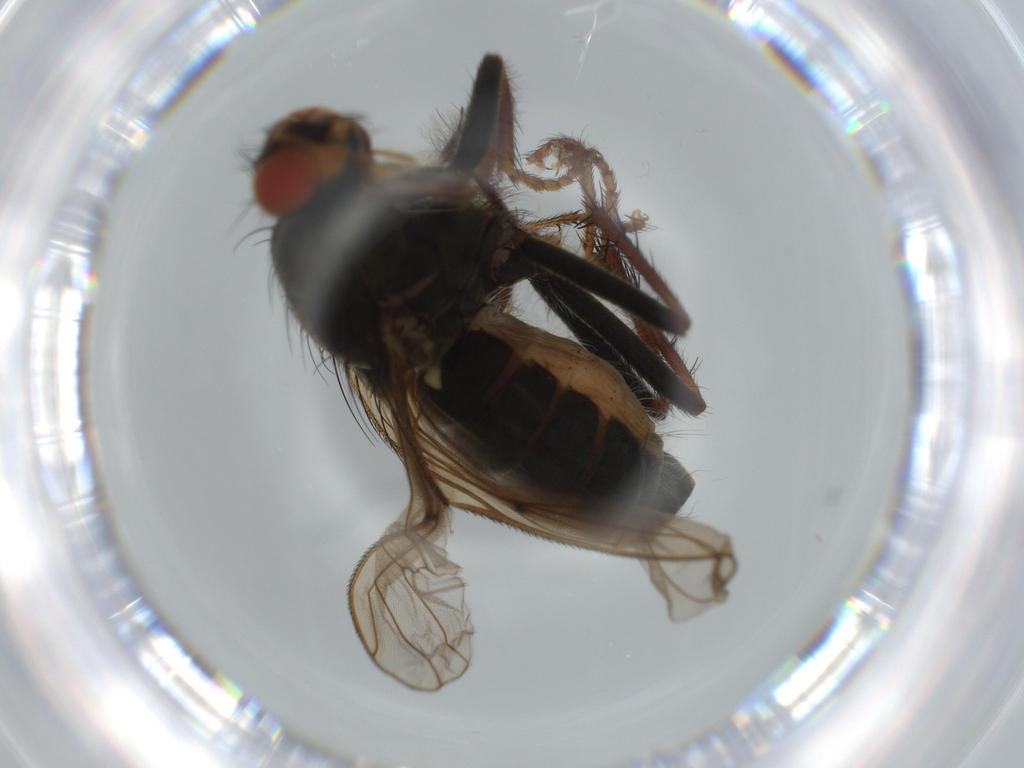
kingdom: Animalia
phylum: Arthropoda
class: Insecta
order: Diptera
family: Scathophagidae
